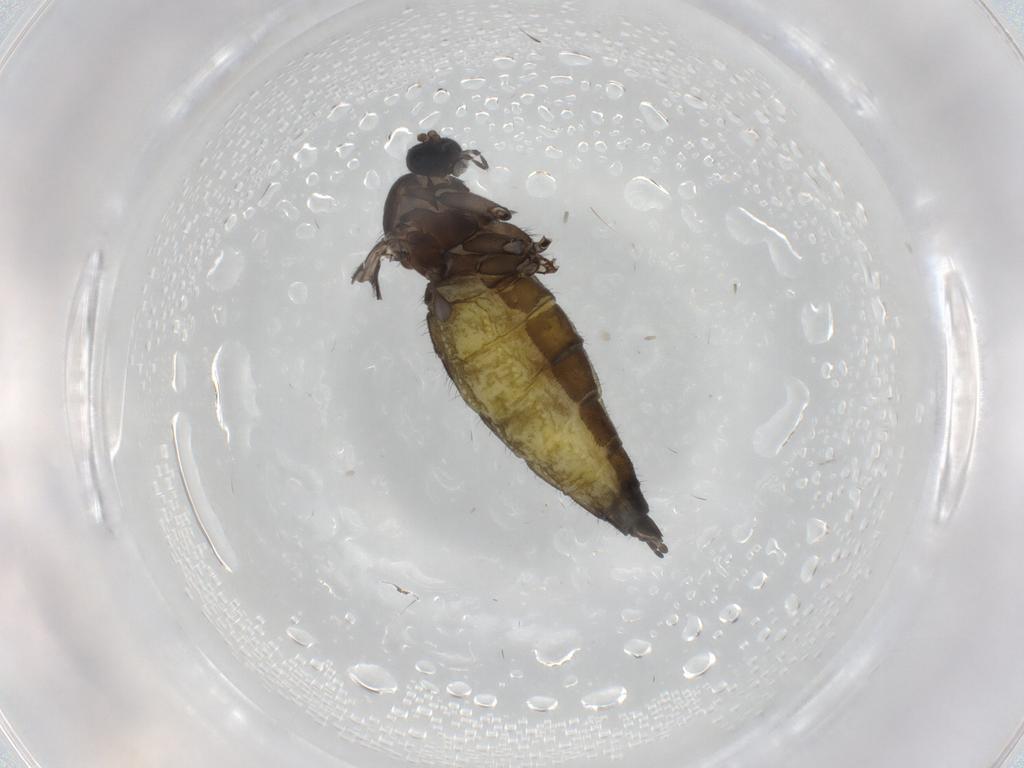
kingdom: Animalia
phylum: Arthropoda
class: Insecta
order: Diptera
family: Sciaridae
